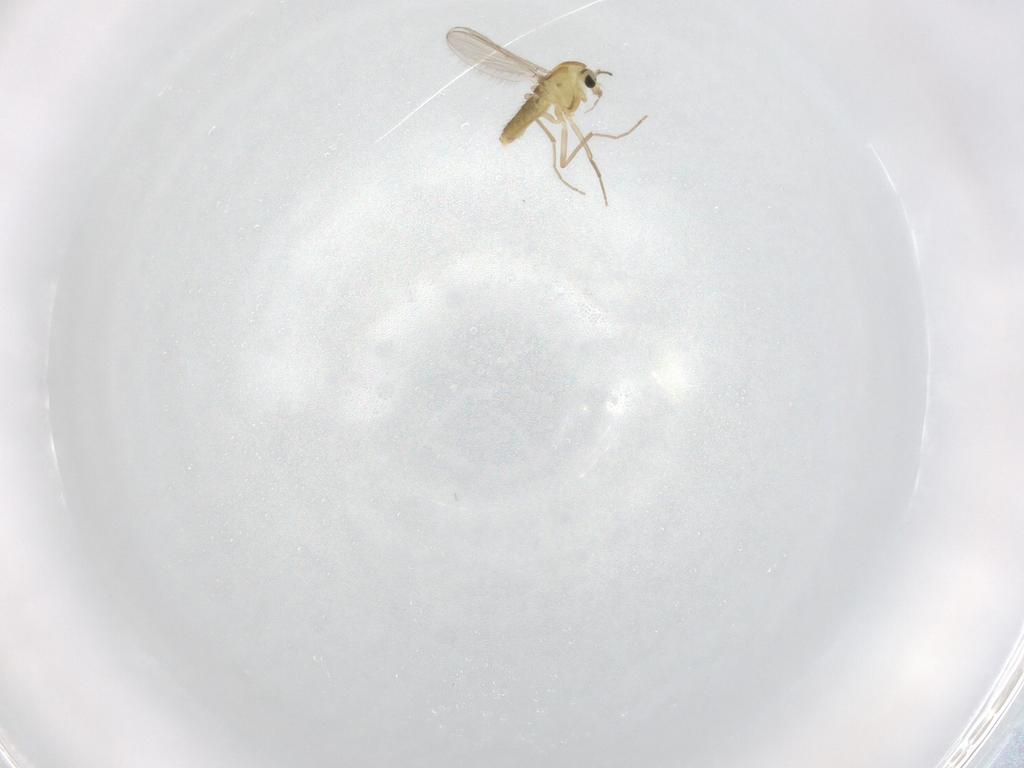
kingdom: Animalia
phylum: Arthropoda
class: Insecta
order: Diptera
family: Chironomidae
